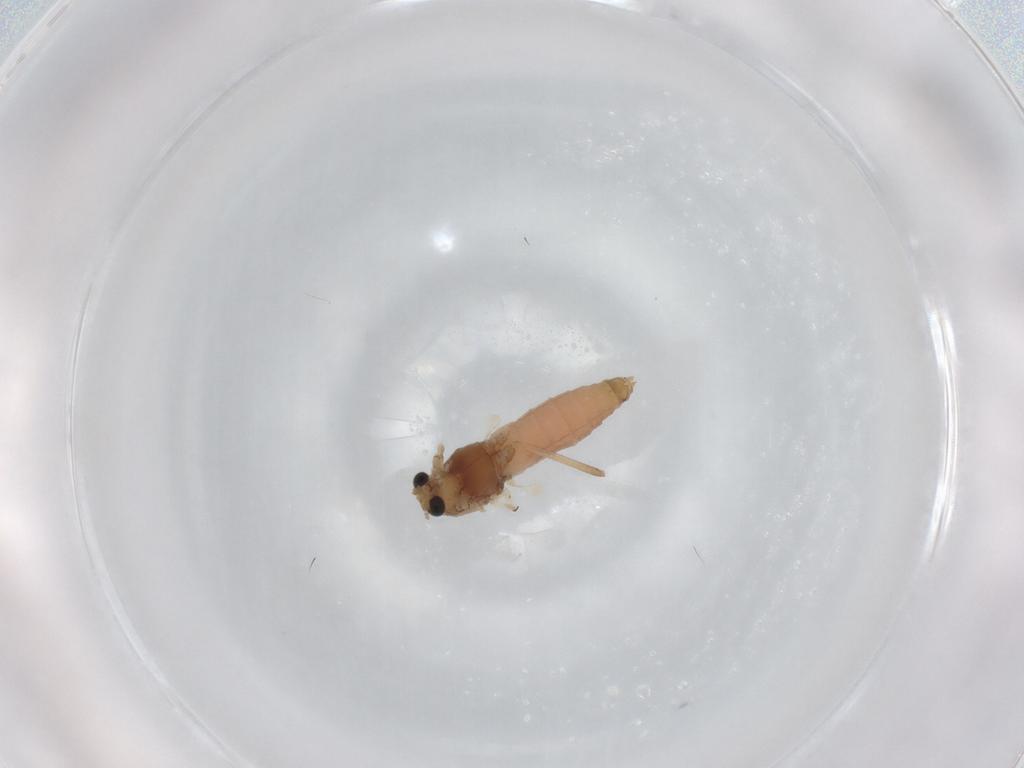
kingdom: Animalia
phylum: Arthropoda
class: Insecta
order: Diptera
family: Chironomidae
